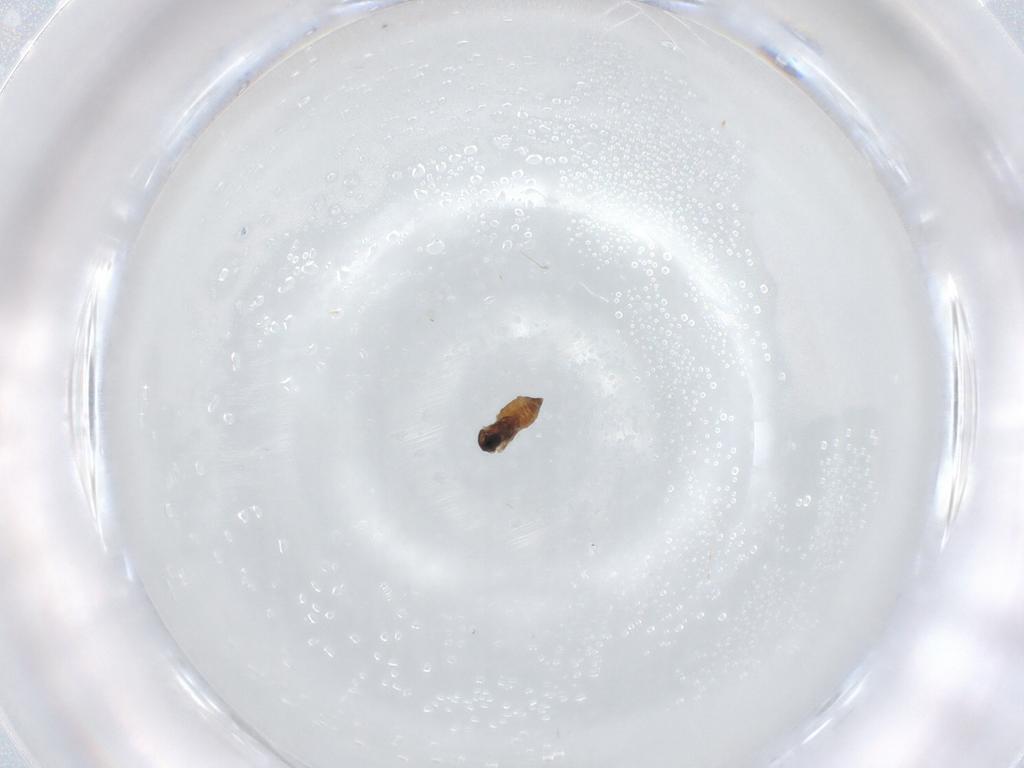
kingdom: Animalia
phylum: Arthropoda
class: Insecta
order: Diptera
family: Cecidomyiidae
